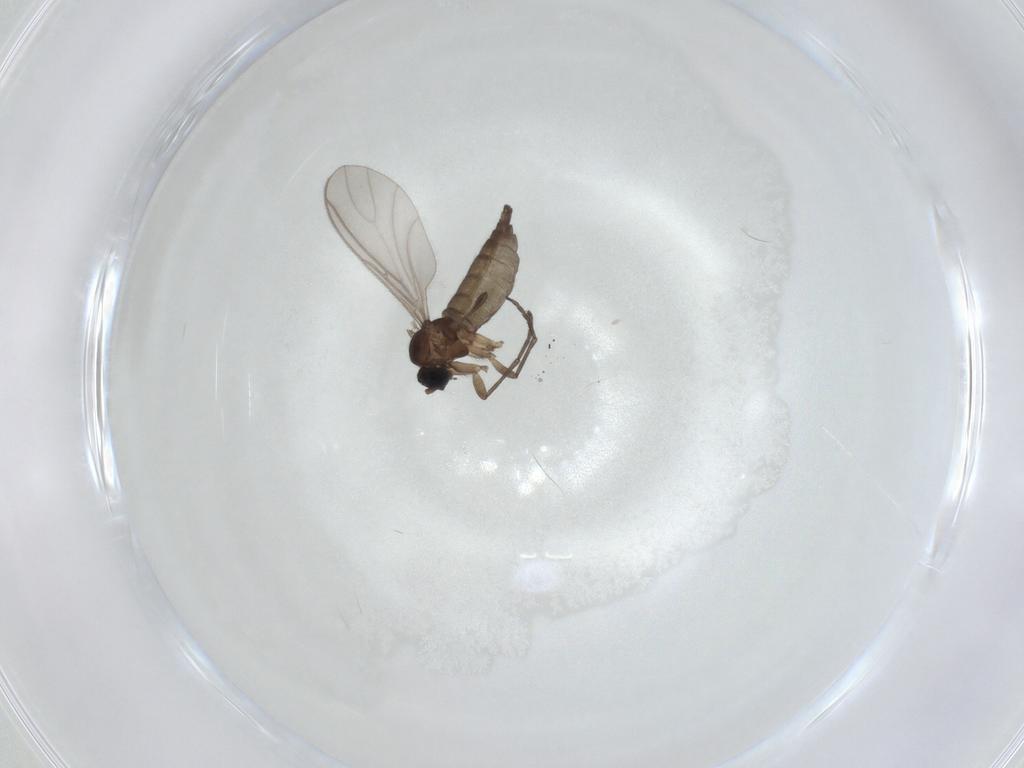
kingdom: Animalia
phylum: Arthropoda
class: Insecta
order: Diptera
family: Sciaridae
